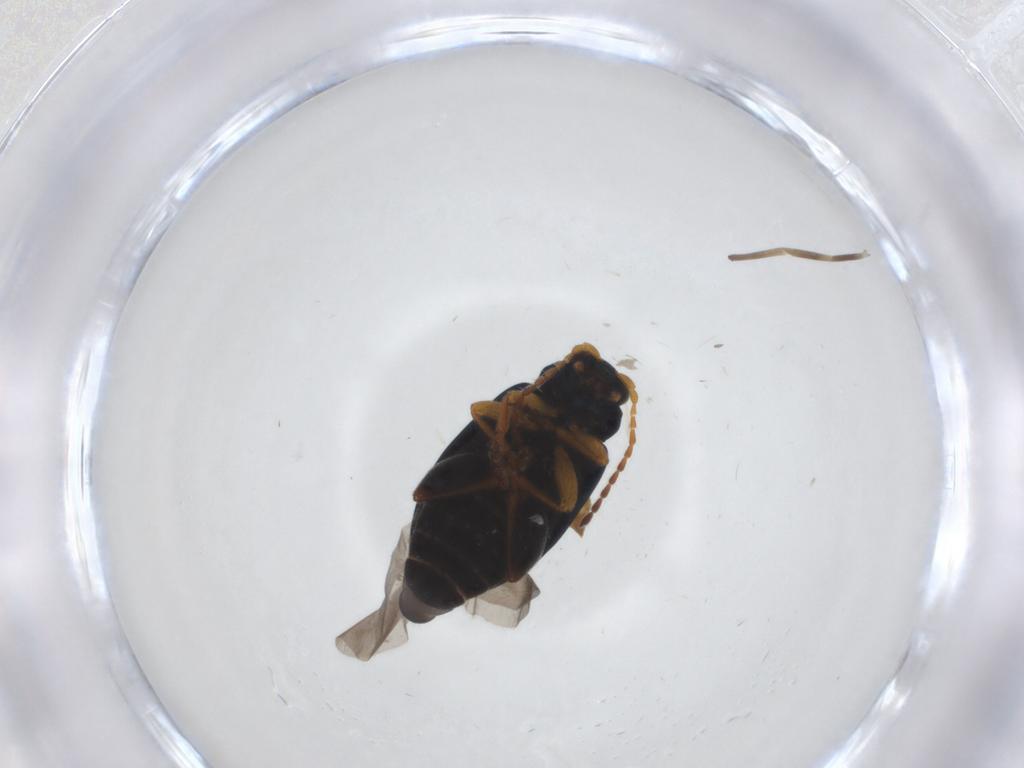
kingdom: Animalia
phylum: Arthropoda
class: Insecta
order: Coleoptera
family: Chrysomelidae
